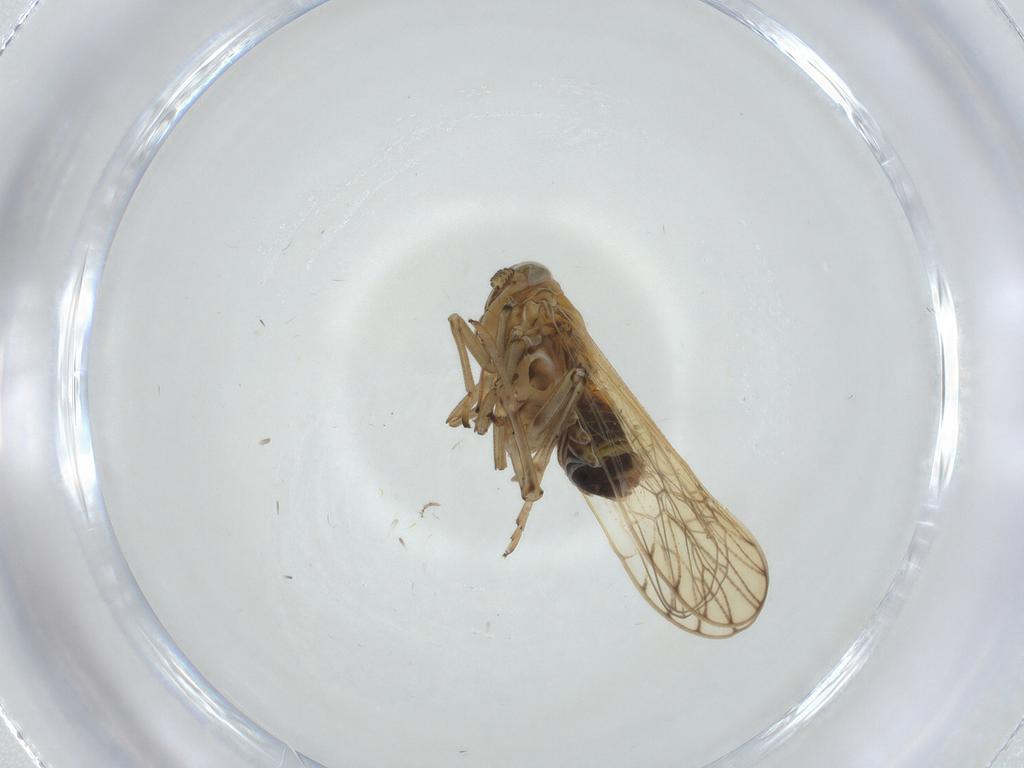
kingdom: Animalia
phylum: Arthropoda
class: Insecta
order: Hemiptera
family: Delphacidae
